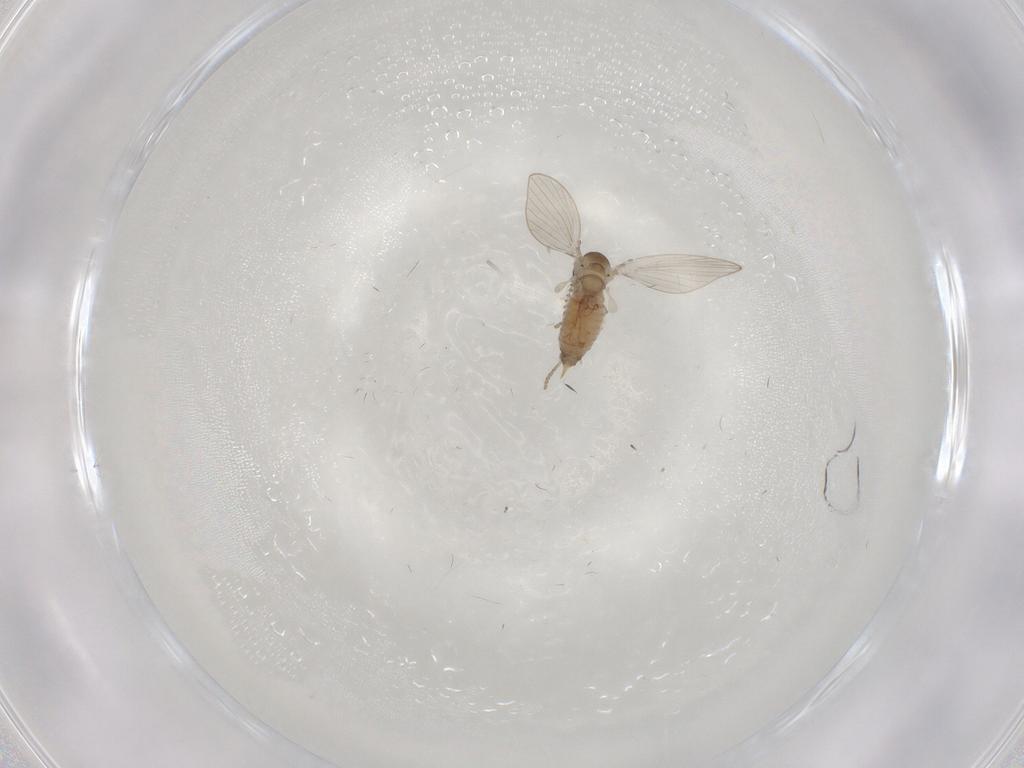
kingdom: Animalia
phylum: Arthropoda
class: Insecta
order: Diptera
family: Psychodidae
